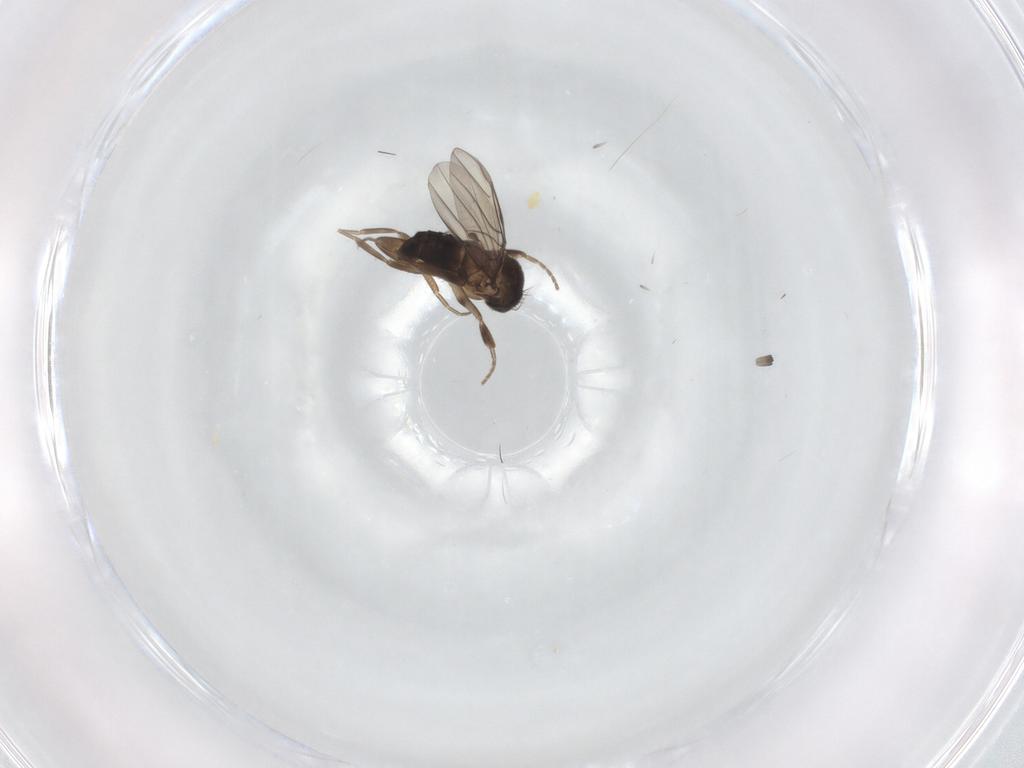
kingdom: Animalia
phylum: Arthropoda
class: Insecta
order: Diptera
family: Phoridae
